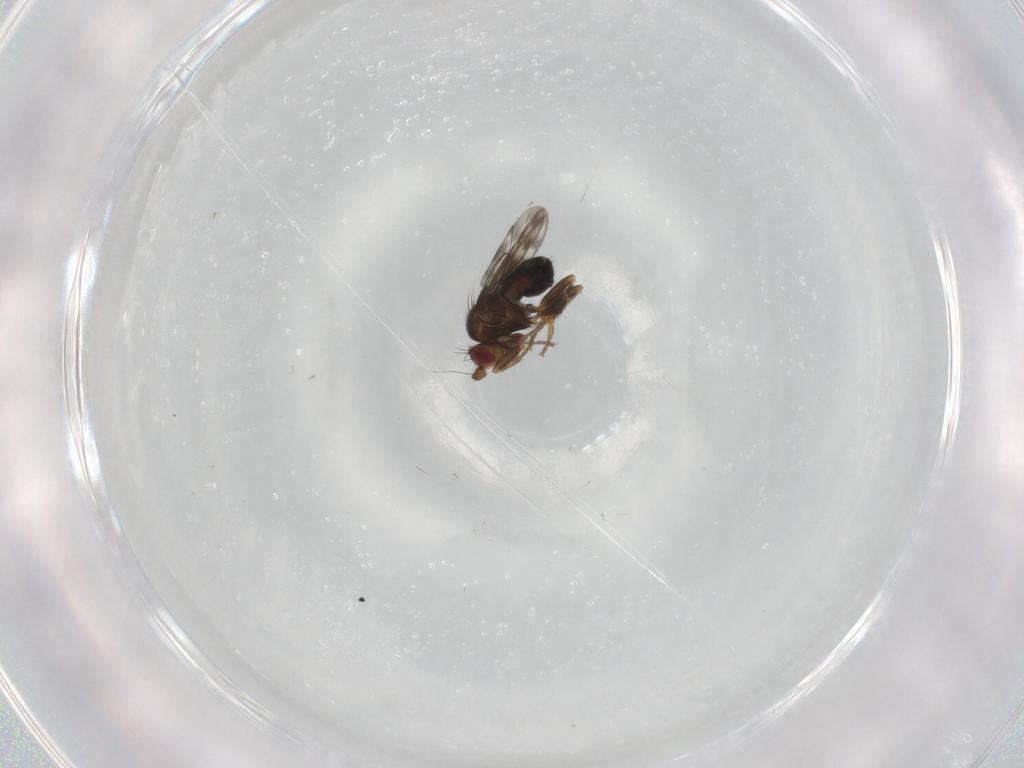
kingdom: Animalia
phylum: Arthropoda
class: Insecta
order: Diptera
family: Sphaeroceridae
